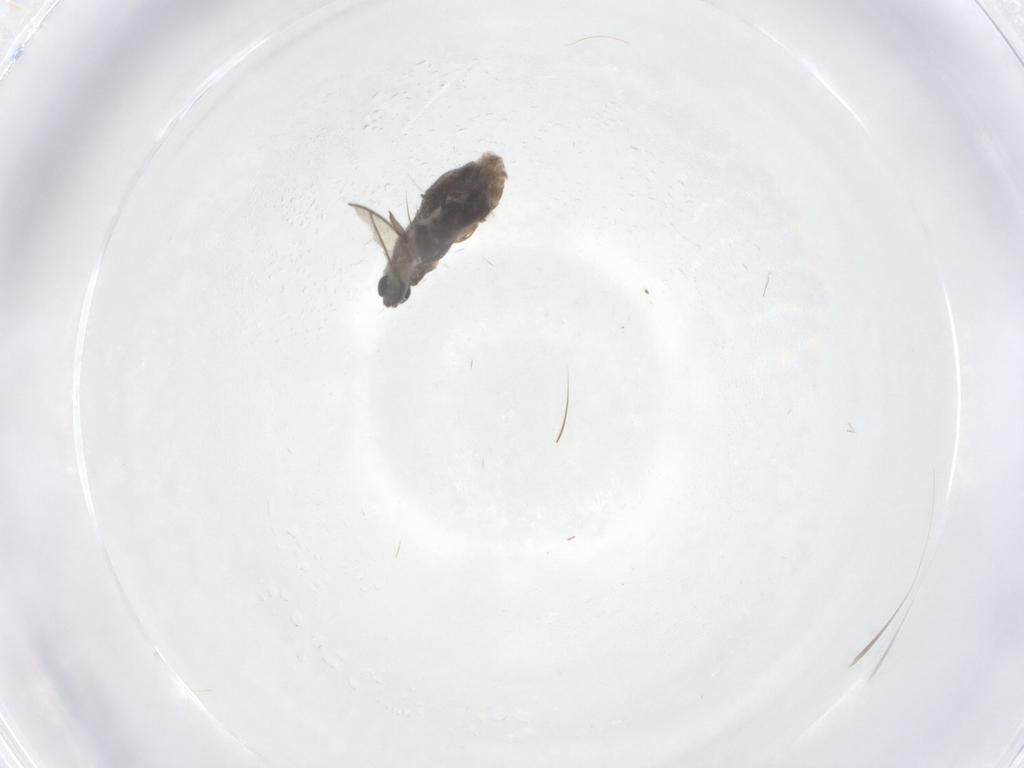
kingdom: Animalia
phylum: Arthropoda
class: Insecta
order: Diptera
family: Sciaridae
